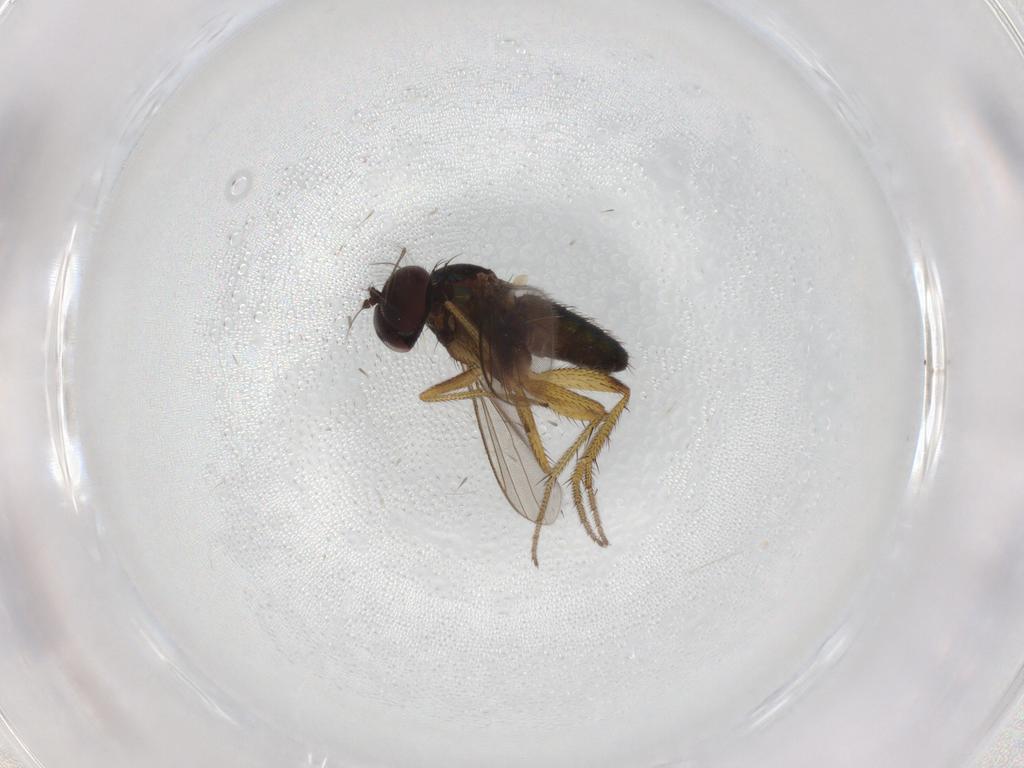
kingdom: Animalia
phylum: Arthropoda
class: Insecta
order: Diptera
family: Dolichopodidae
